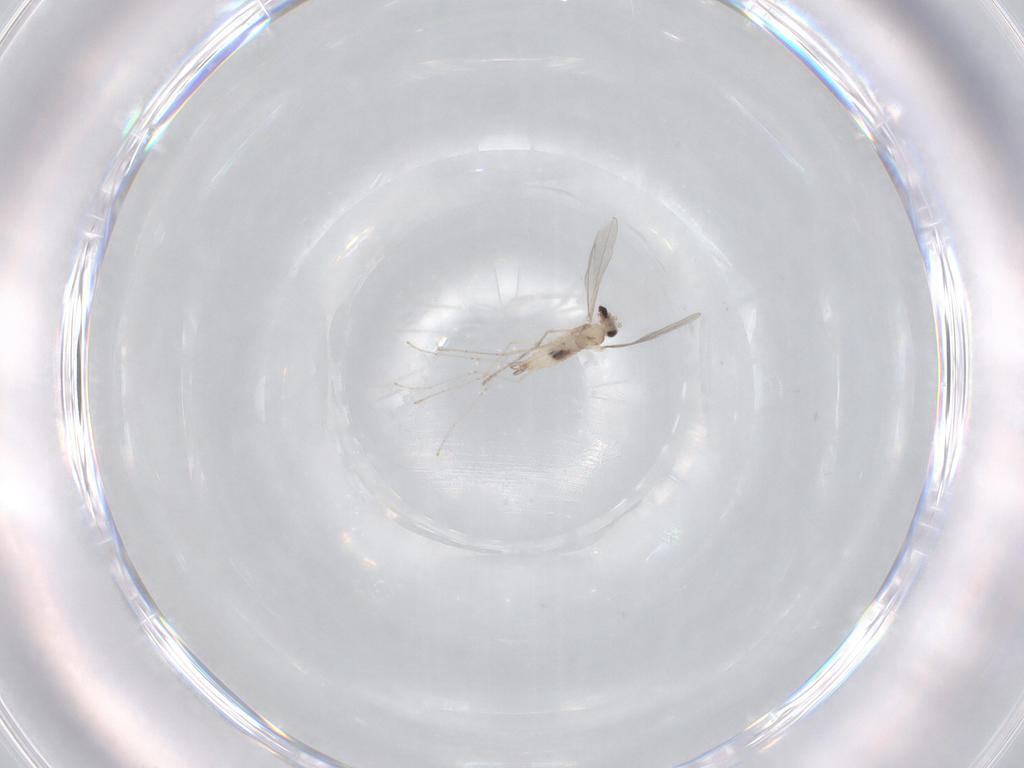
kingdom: Animalia
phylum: Arthropoda
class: Insecta
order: Diptera
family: Cecidomyiidae
